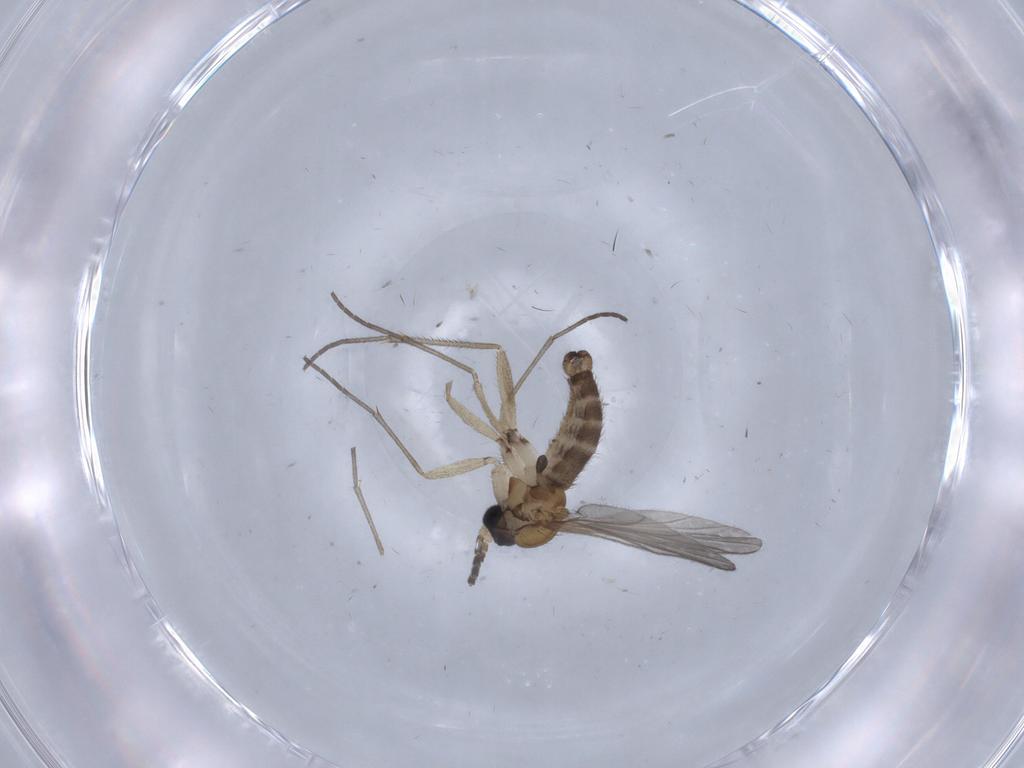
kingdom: Animalia
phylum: Arthropoda
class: Insecta
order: Diptera
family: Sciaridae
